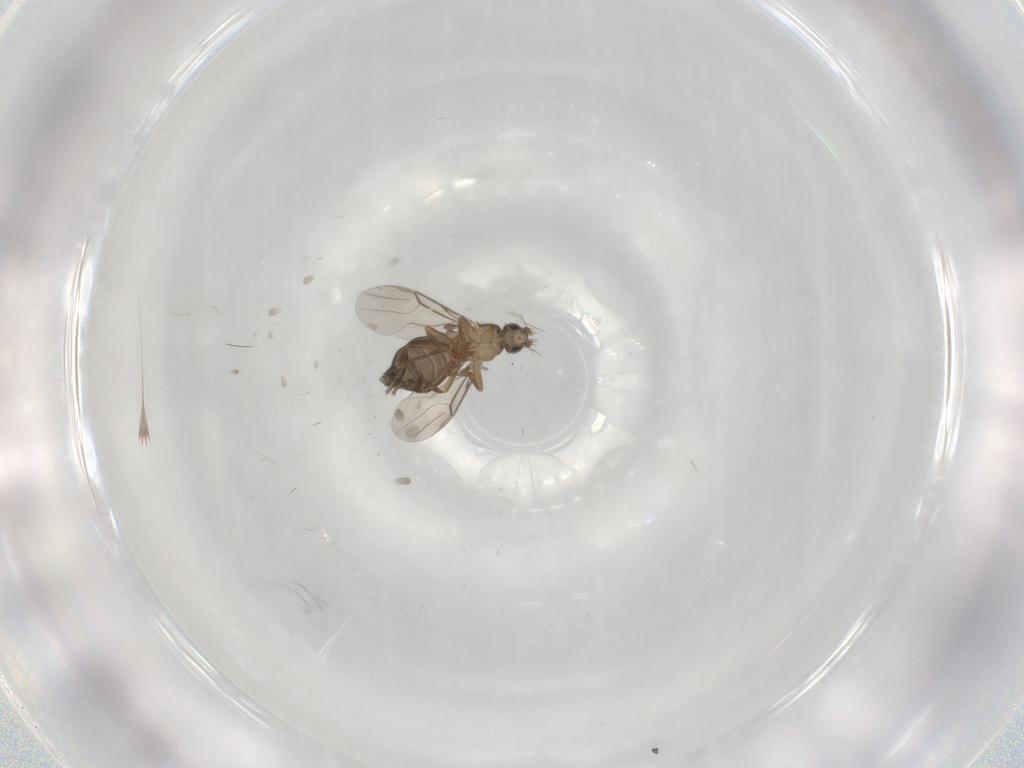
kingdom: Animalia
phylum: Arthropoda
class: Insecta
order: Diptera
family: Phoridae
